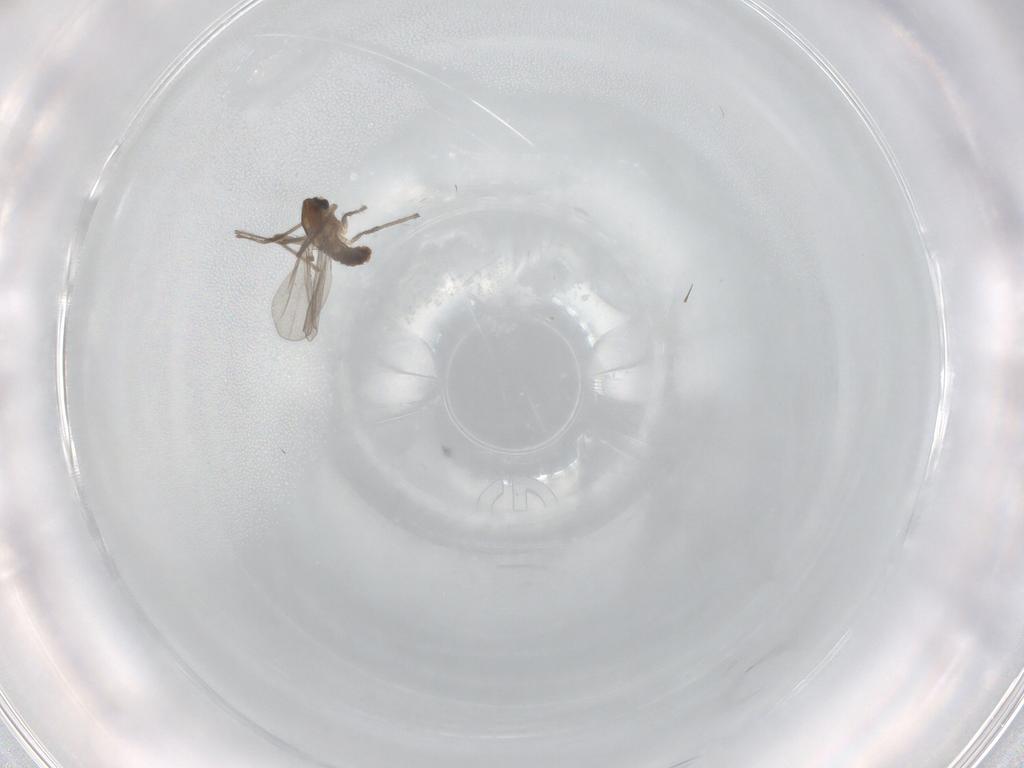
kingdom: Animalia
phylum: Arthropoda
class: Insecta
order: Diptera
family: Chironomidae
